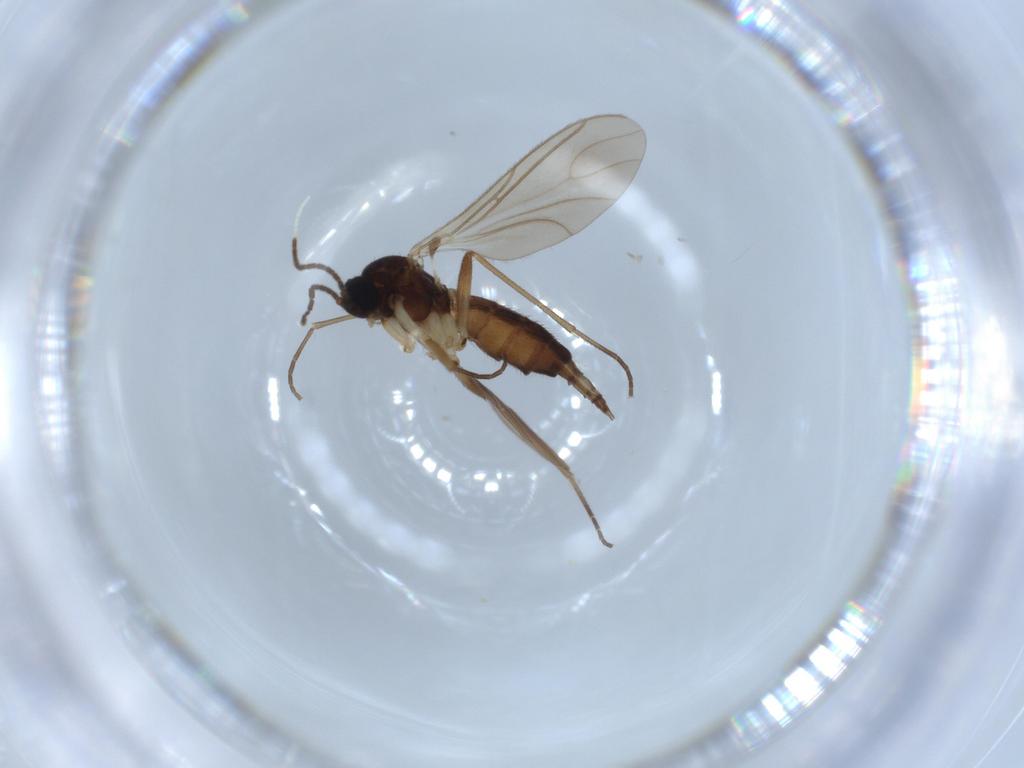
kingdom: Animalia
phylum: Arthropoda
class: Insecta
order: Diptera
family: Sciaridae
